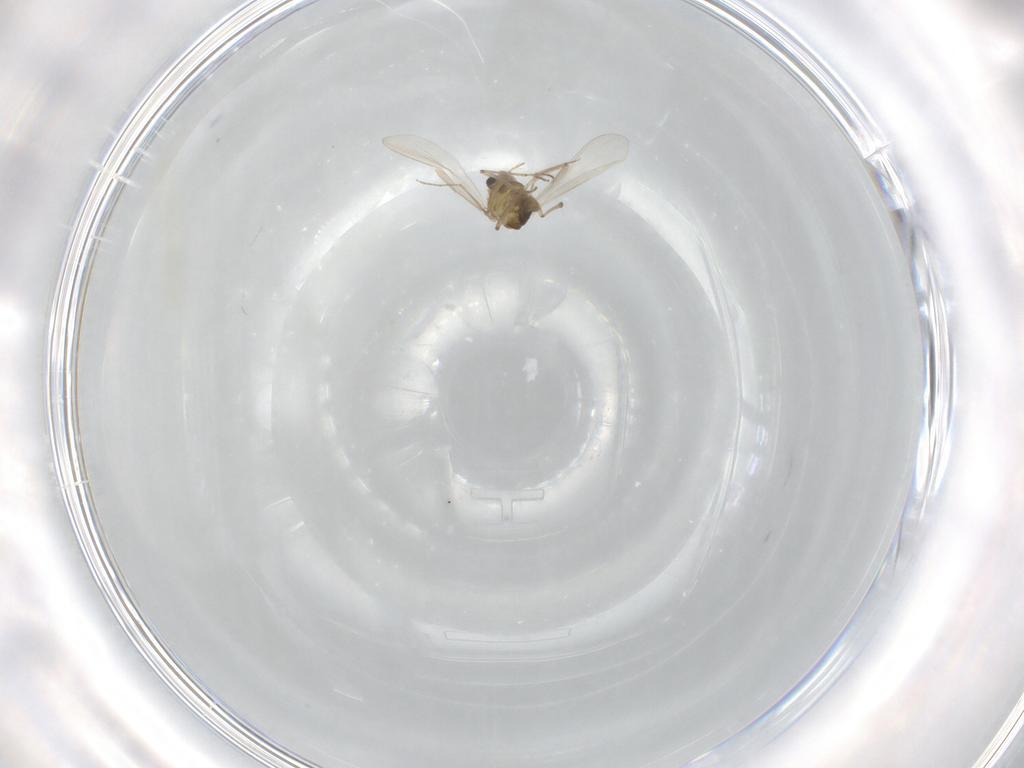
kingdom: Animalia
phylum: Arthropoda
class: Insecta
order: Diptera
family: Chironomidae
